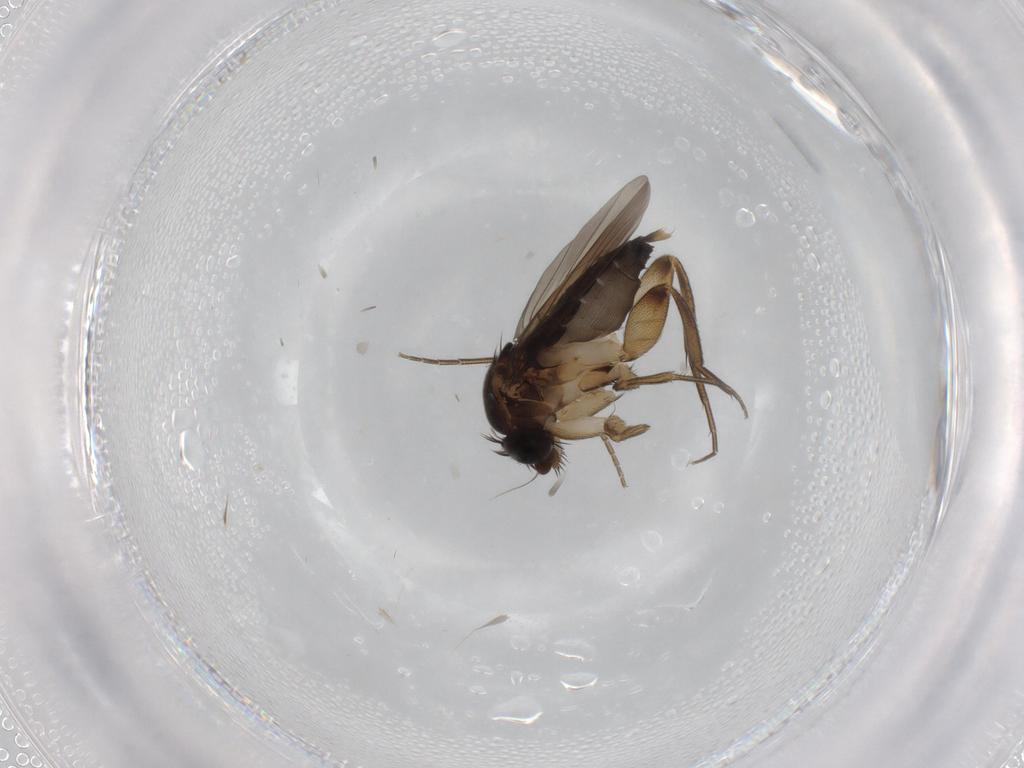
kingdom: Animalia
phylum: Arthropoda
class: Insecta
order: Diptera
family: Phoridae
